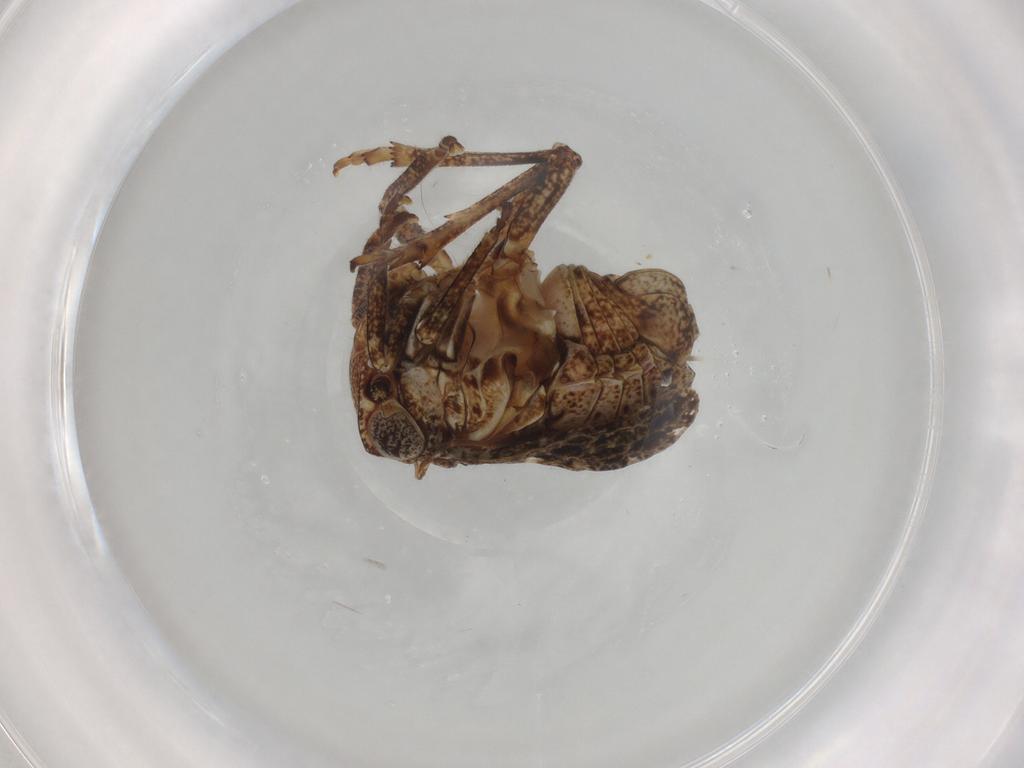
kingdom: Animalia
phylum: Arthropoda
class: Insecta
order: Hemiptera
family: Tropiduchidae
